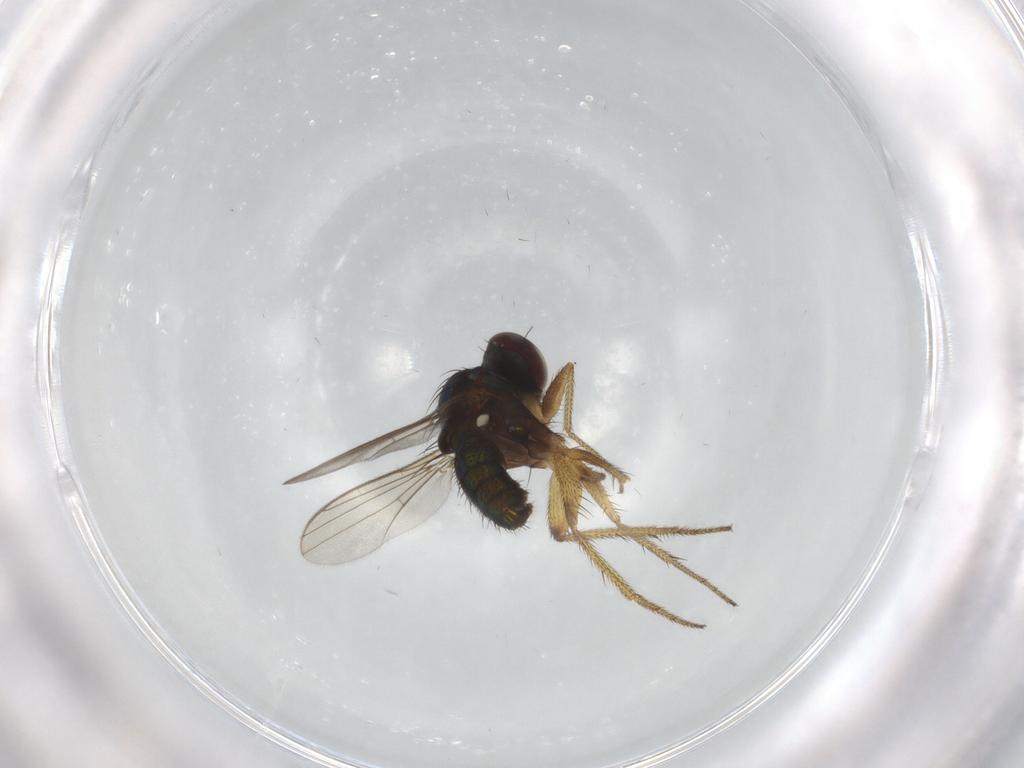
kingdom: Animalia
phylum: Arthropoda
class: Insecta
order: Diptera
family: Dolichopodidae
